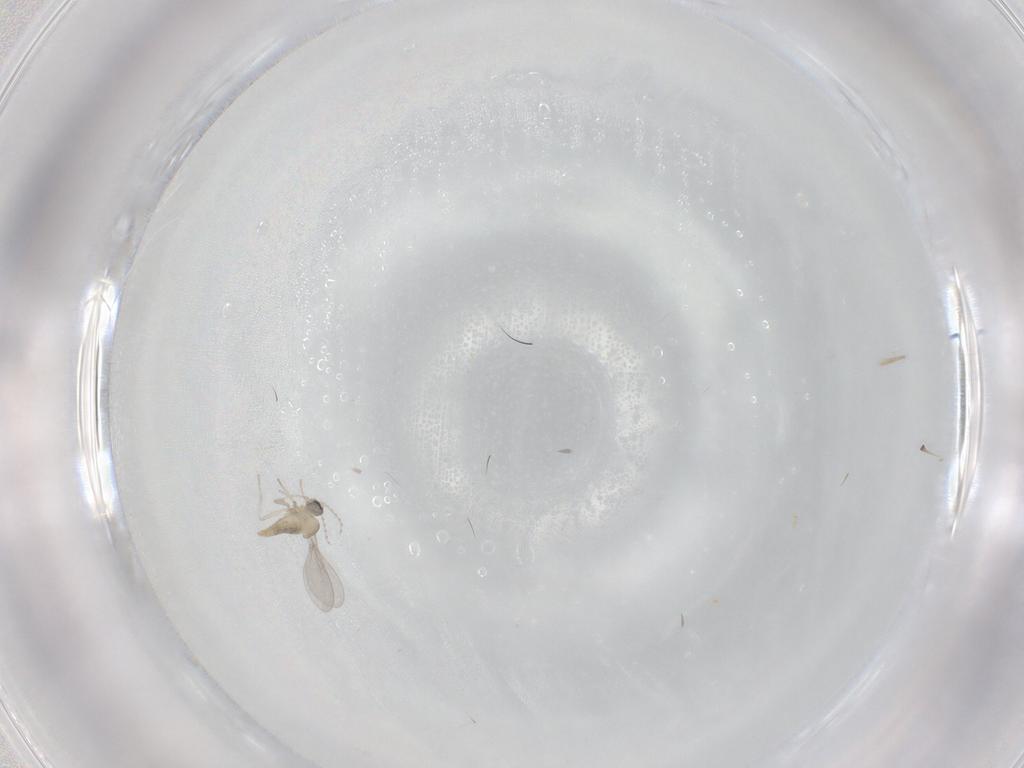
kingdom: Animalia
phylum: Arthropoda
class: Insecta
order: Diptera
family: Cecidomyiidae
